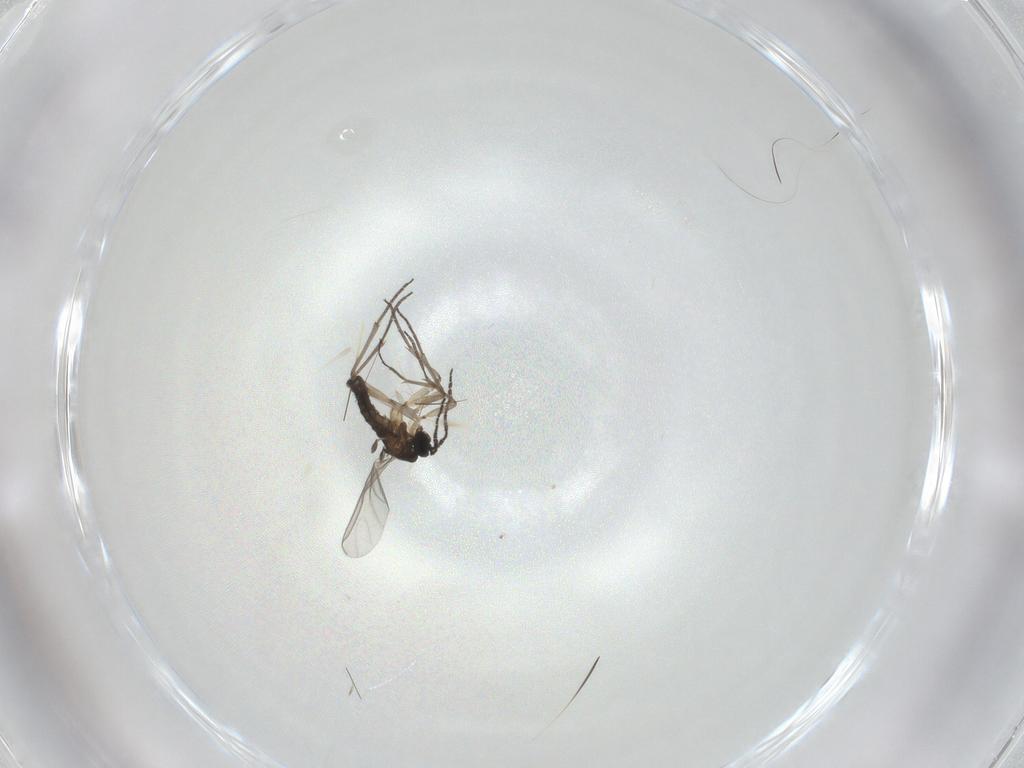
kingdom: Animalia
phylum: Arthropoda
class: Insecta
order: Diptera
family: Sciaridae
